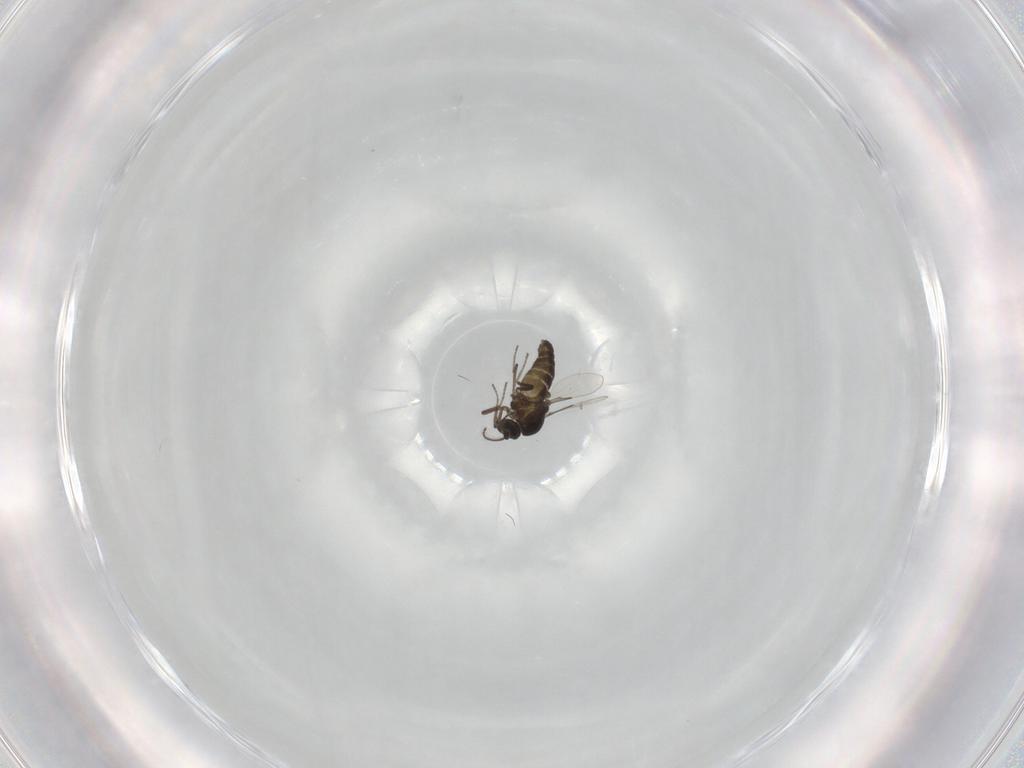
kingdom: Animalia
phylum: Arthropoda
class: Insecta
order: Diptera
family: Ceratopogonidae
